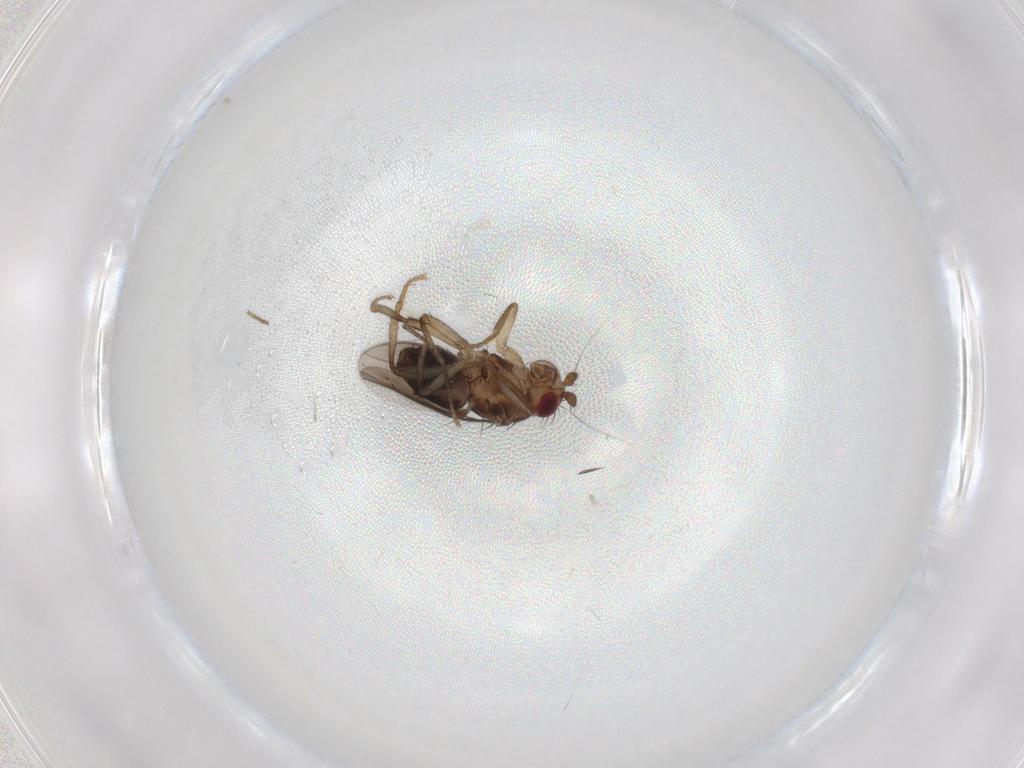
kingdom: Animalia
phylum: Arthropoda
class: Insecta
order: Diptera
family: Sphaeroceridae
